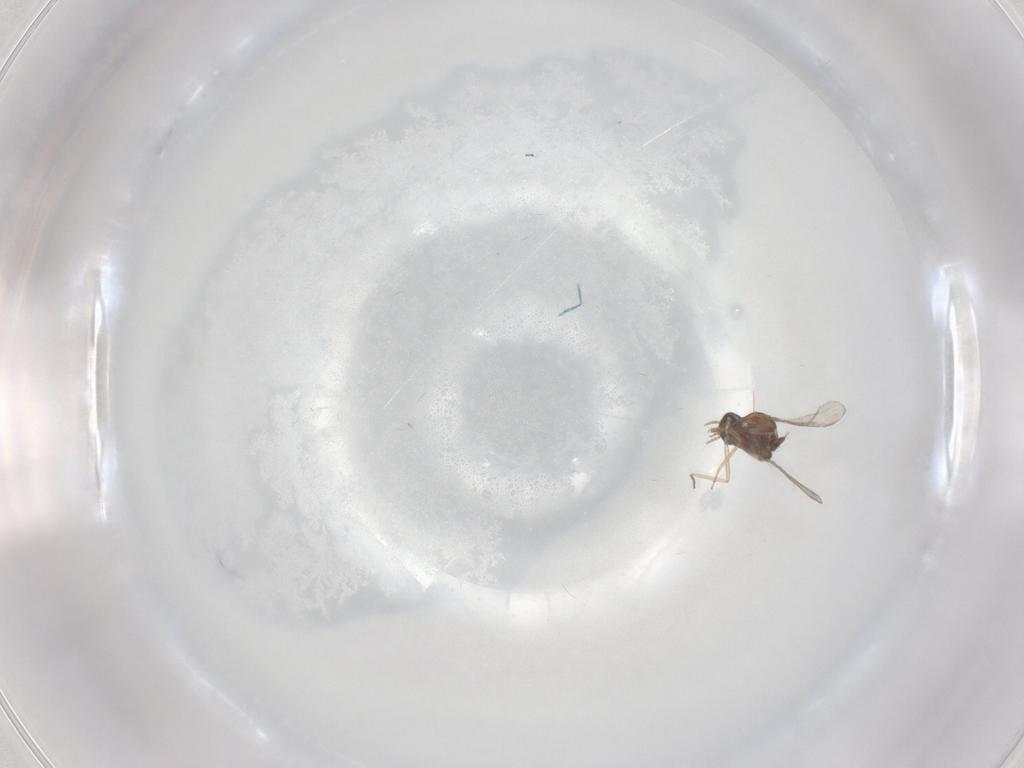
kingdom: Animalia
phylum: Arthropoda
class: Insecta
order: Diptera
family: Ceratopogonidae
